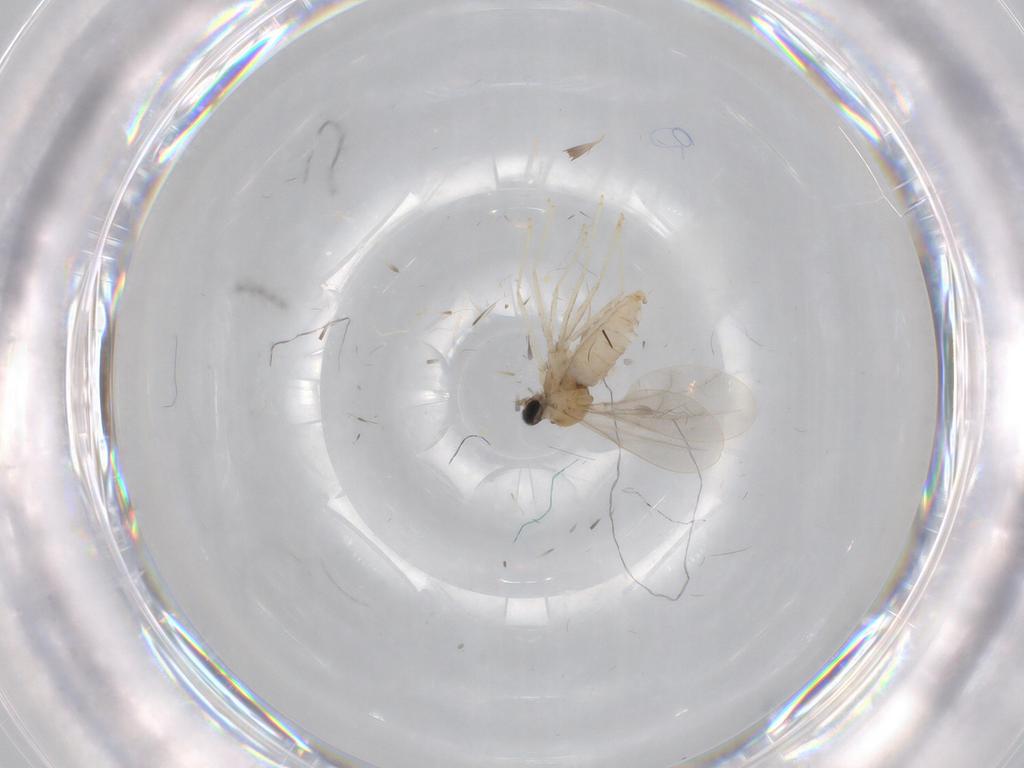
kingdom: Animalia
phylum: Arthropoda
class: Insecta
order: Diptera
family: Cecidomyiidae
